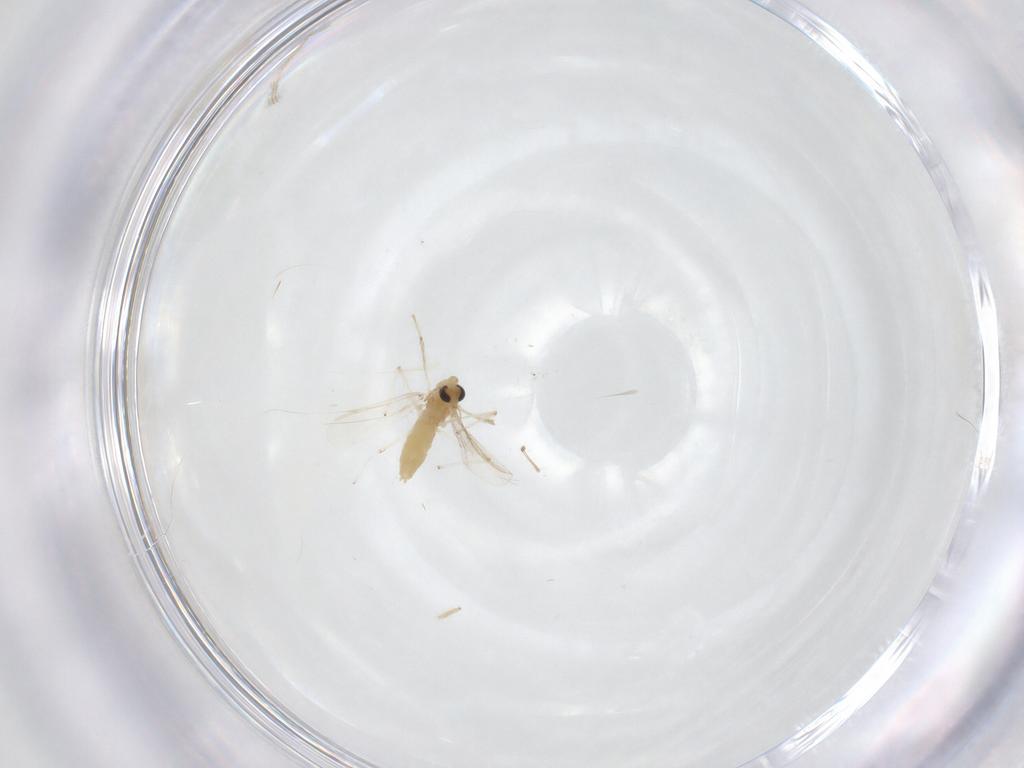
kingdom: Animalia
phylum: Arthropoda
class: Insecta
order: Diptera
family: Chironomidae
